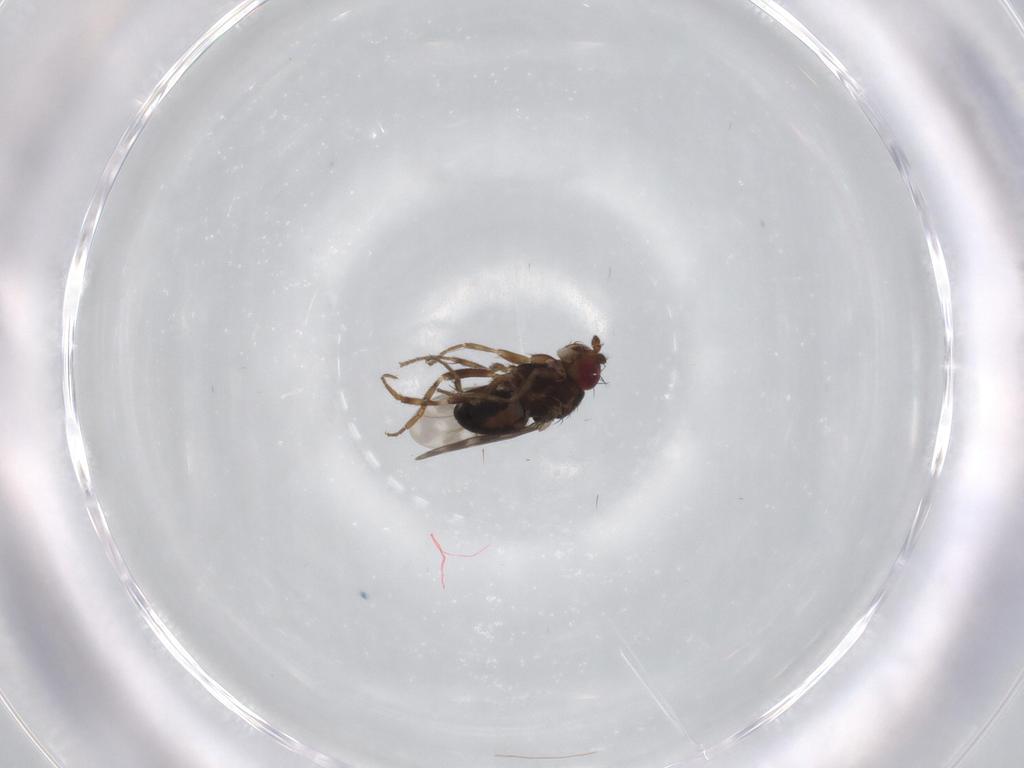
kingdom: Animalia
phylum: Arthropoda
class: Insecta
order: Diptera
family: Sphaeroceridae
